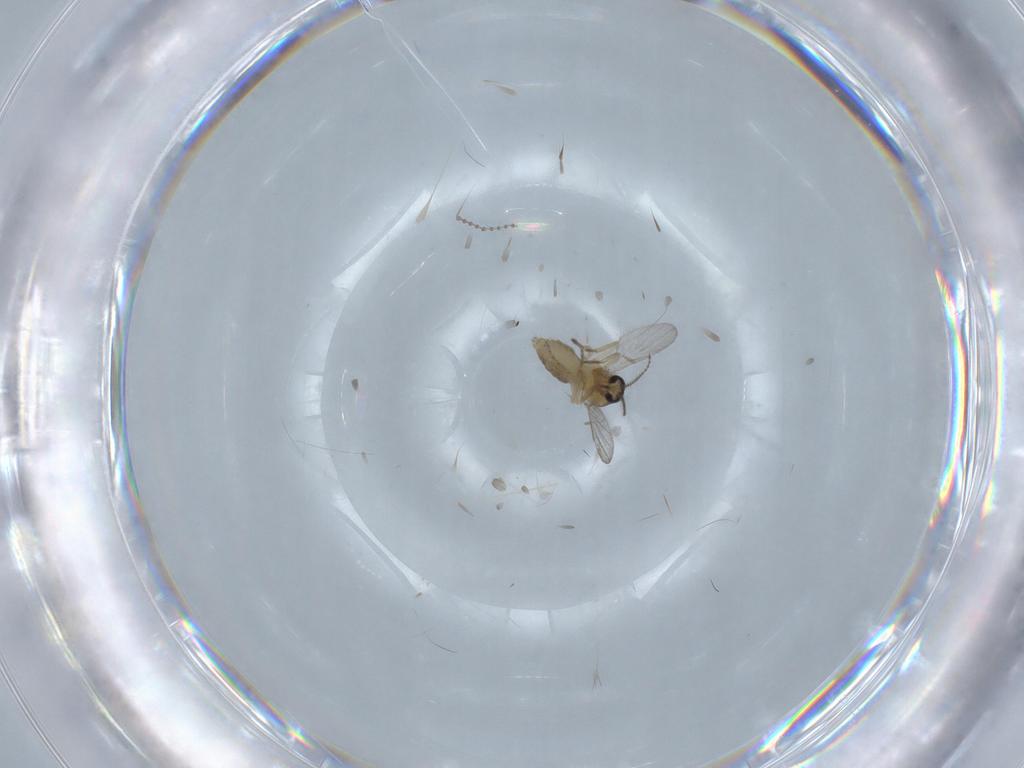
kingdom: Animalia
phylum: Arthropoda
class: Insecta
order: Diptera
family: Ceratopogonidae
